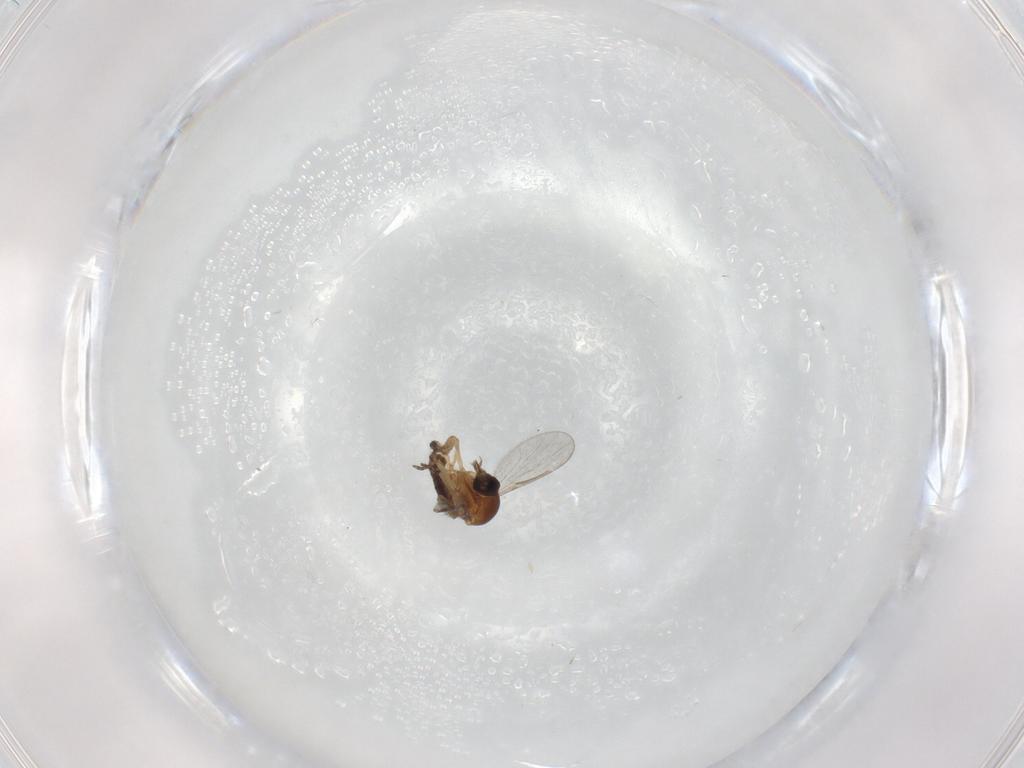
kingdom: Animalia
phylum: Arthropoda
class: Insecta
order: Diptera
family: Ceratopogonidae
